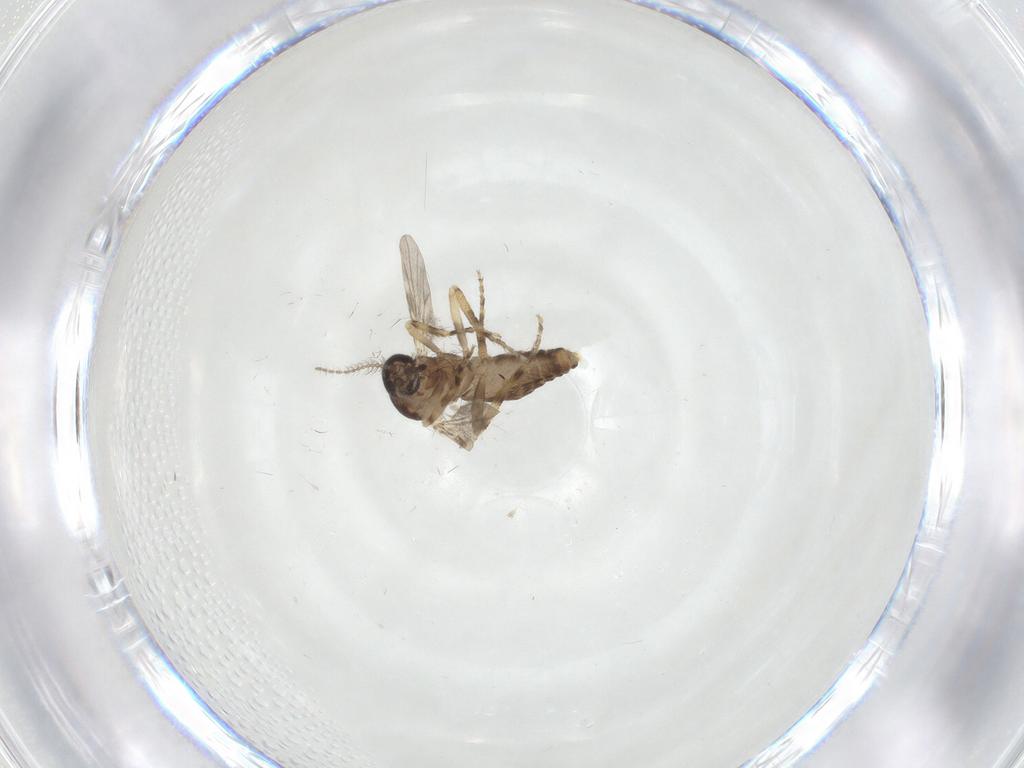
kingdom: Animalia
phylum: Arthropoda
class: Insecta
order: Diptera
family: Ceratopogonidae
